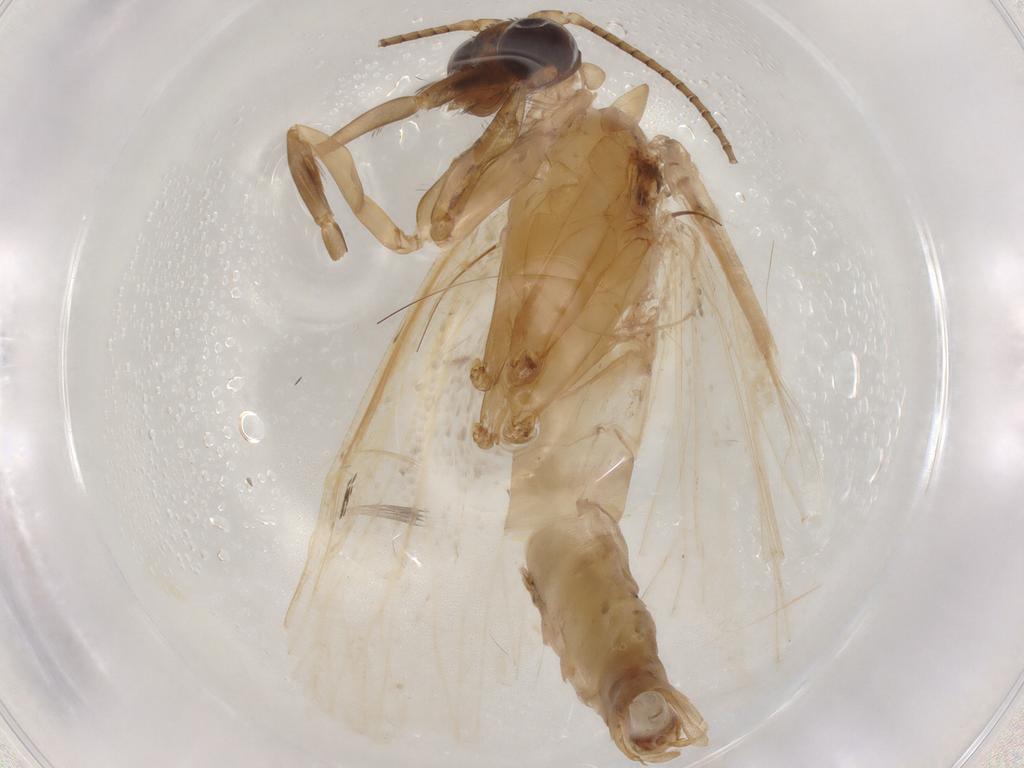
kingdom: Animalia
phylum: Arthropoda
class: Insecta
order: Lepidoptera
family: Erebidae
